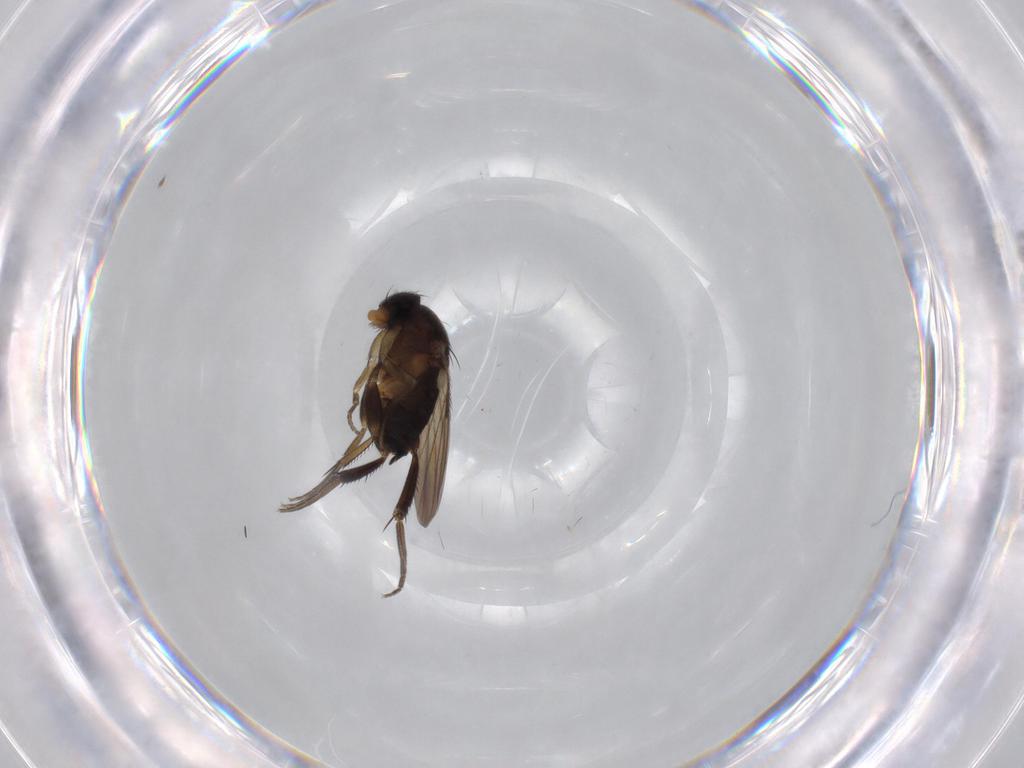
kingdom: Animalia
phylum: Arthropoda
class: Insecta
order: Diptera
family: Phoridae
